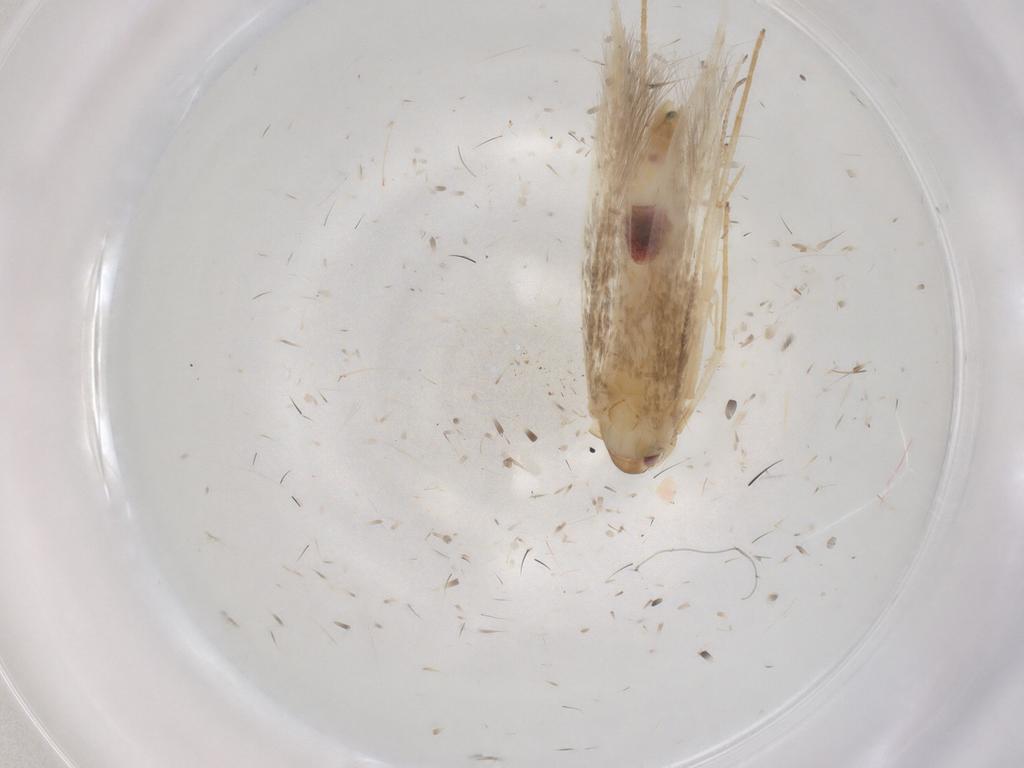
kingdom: Animalia
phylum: Arthropoda
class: Insecta
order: Lepidoptera
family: Cosmopterigidae
